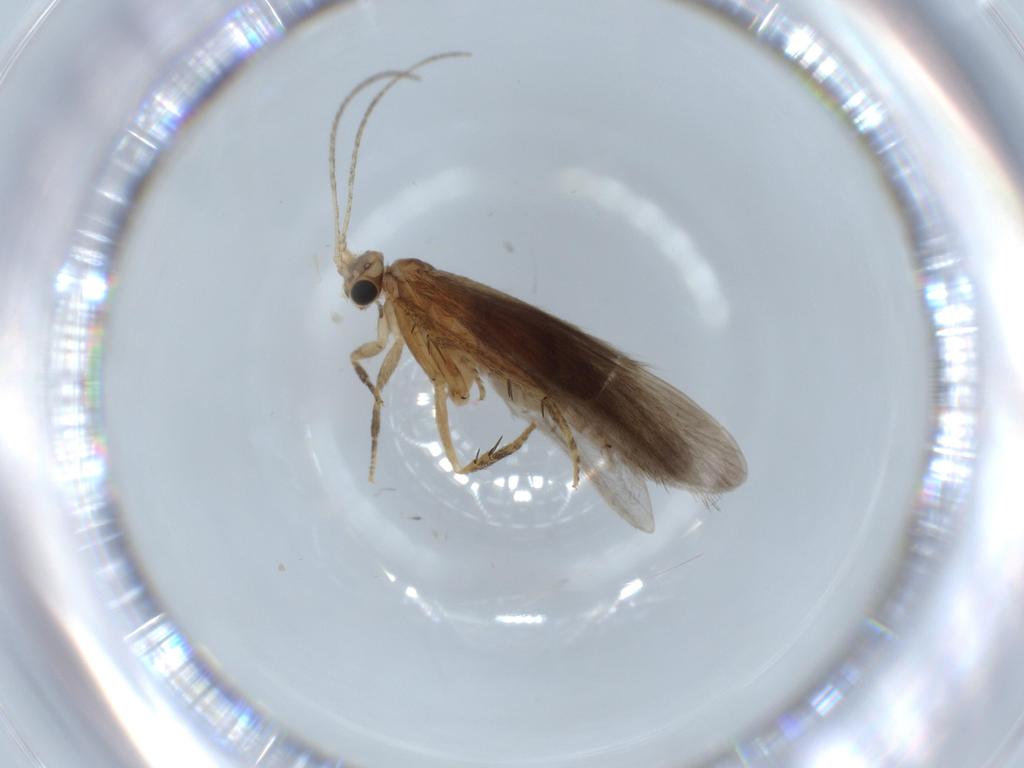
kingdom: Animalia
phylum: Arthropoda
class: Insecta
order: Trichoptera
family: Glossosomatidae
